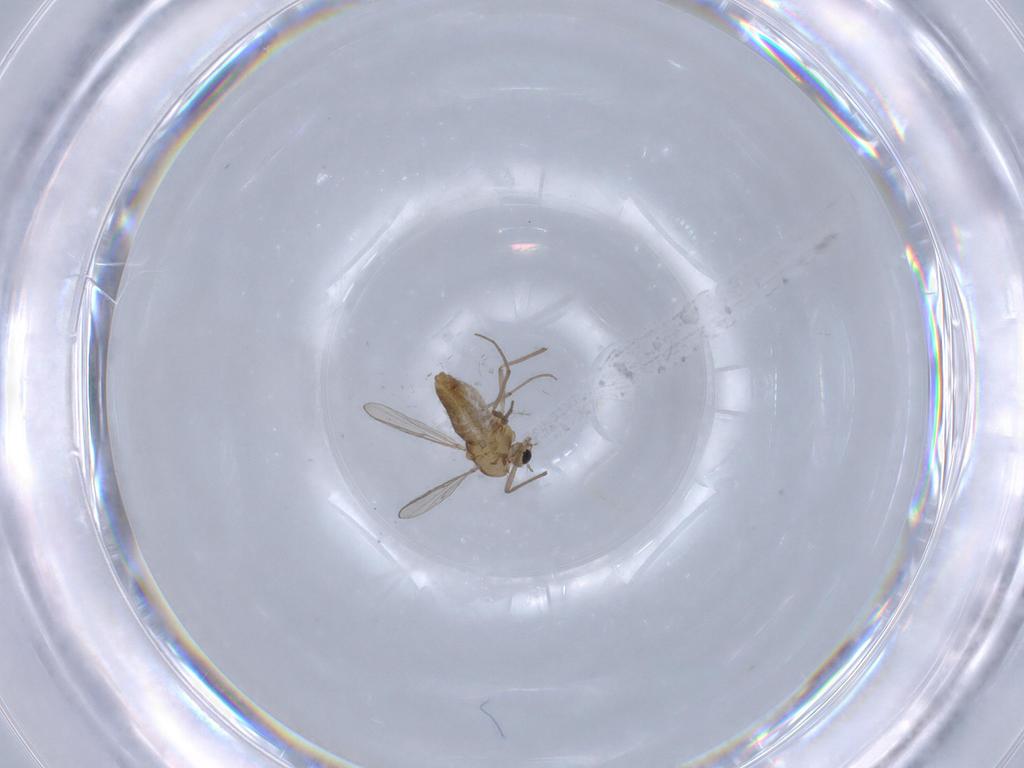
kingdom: Animalia
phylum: Arthropoda
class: Insecta
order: Diptera
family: Chironomidae
